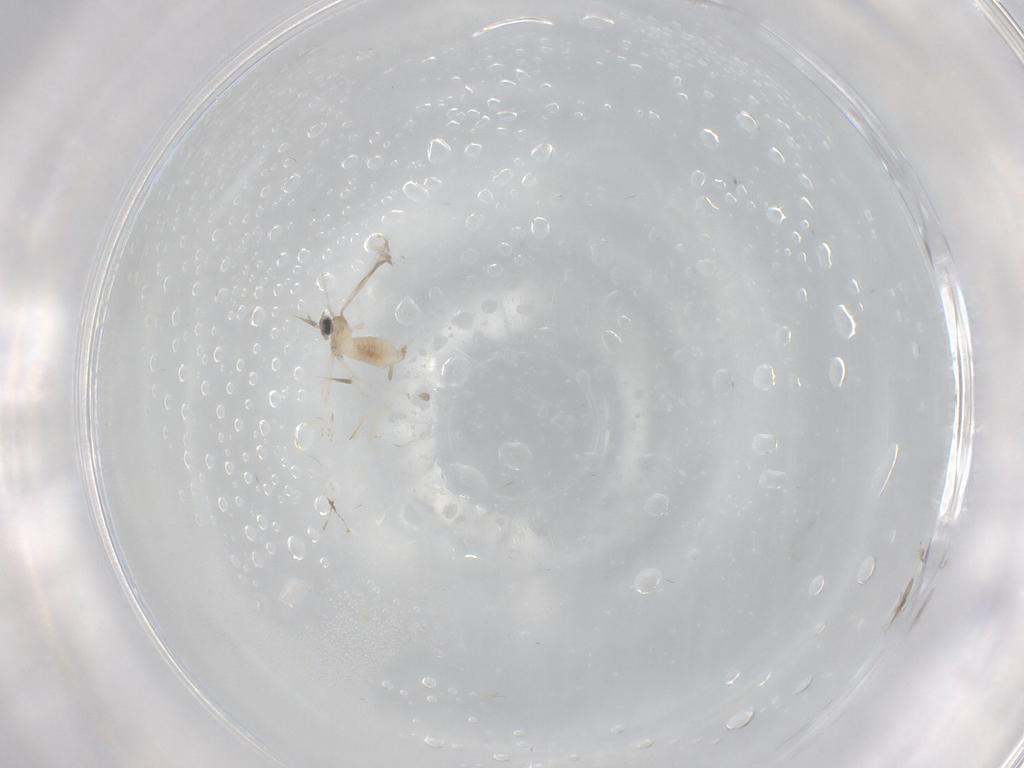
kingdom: Animalia
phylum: Arthropoda
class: Insecta
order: Diptera
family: Cecidomyiidae
